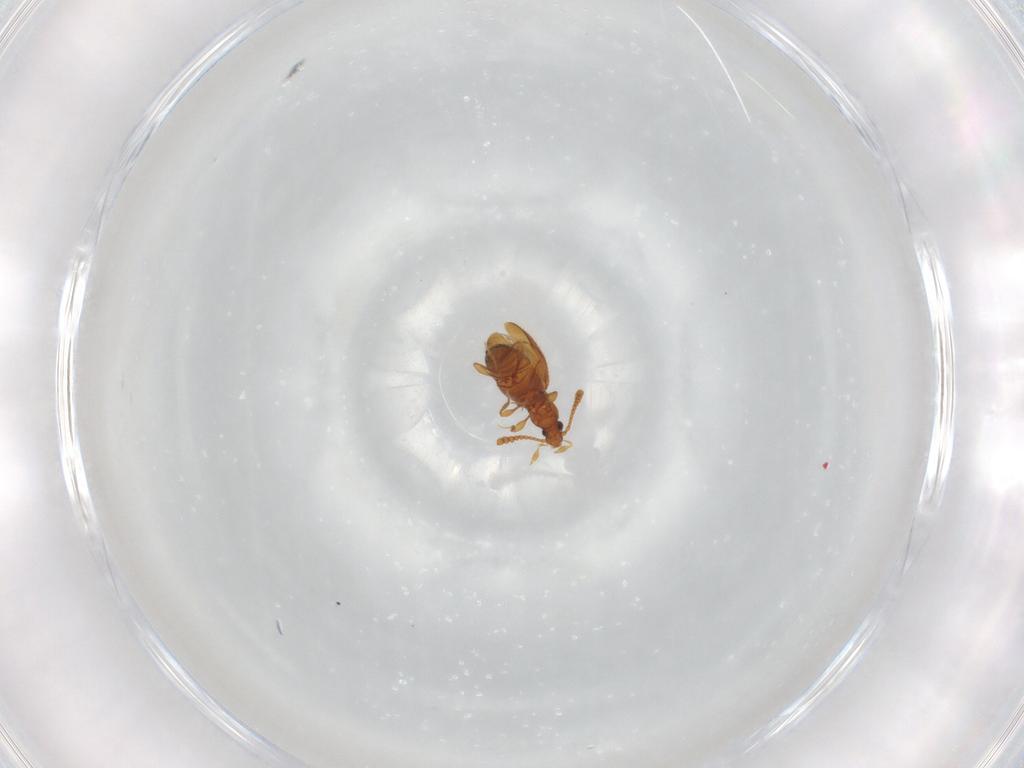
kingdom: Animalia
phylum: Arthropoda
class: Insecta
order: Coleoptera
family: Staphylinidae
